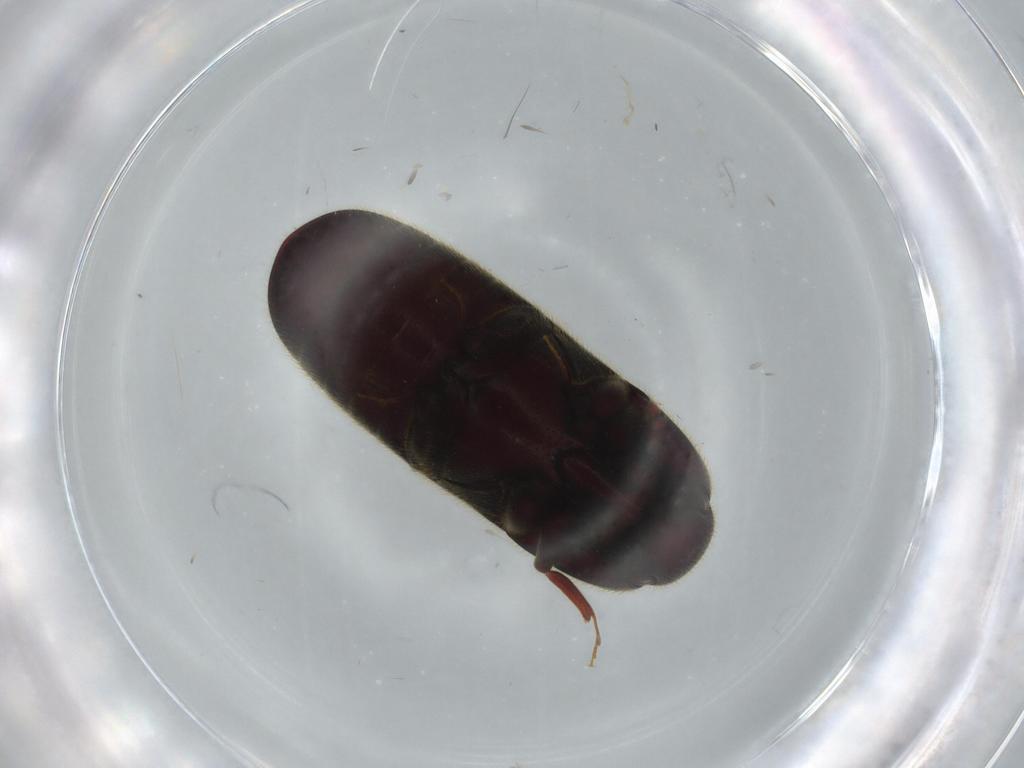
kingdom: Animalia
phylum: Arthropoda
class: Insecta
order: Coleoptera
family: Throscidae
